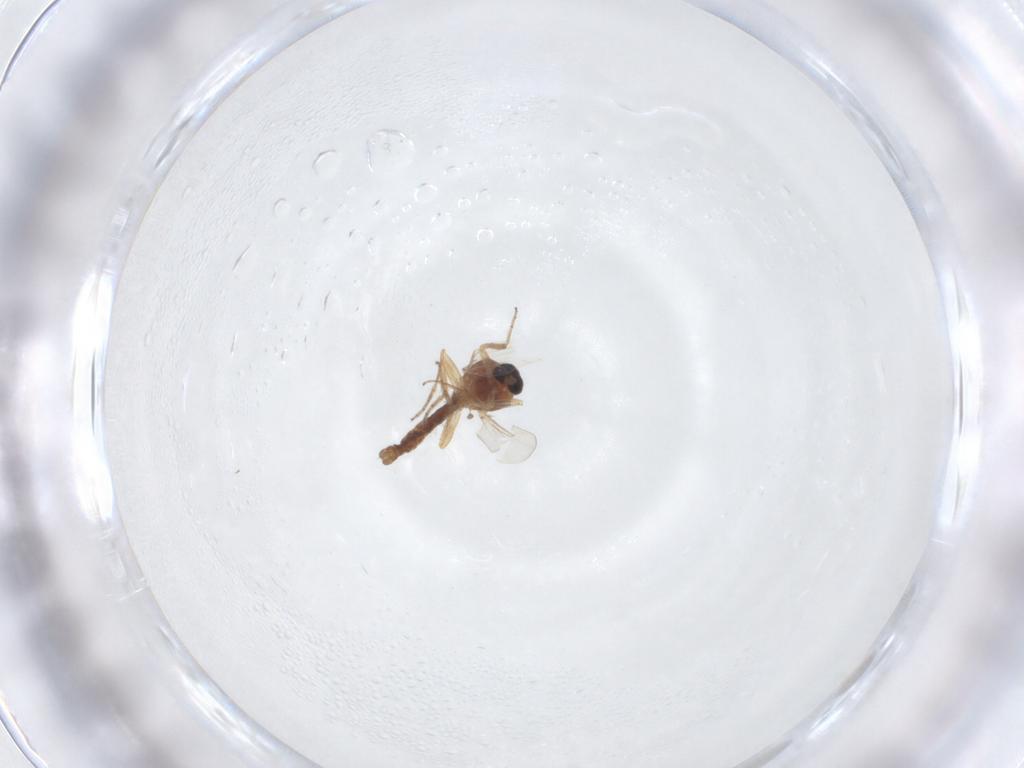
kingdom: Animalia
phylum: Arthropoda
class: Insecta
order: Diptera
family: Ceratopogonidae
